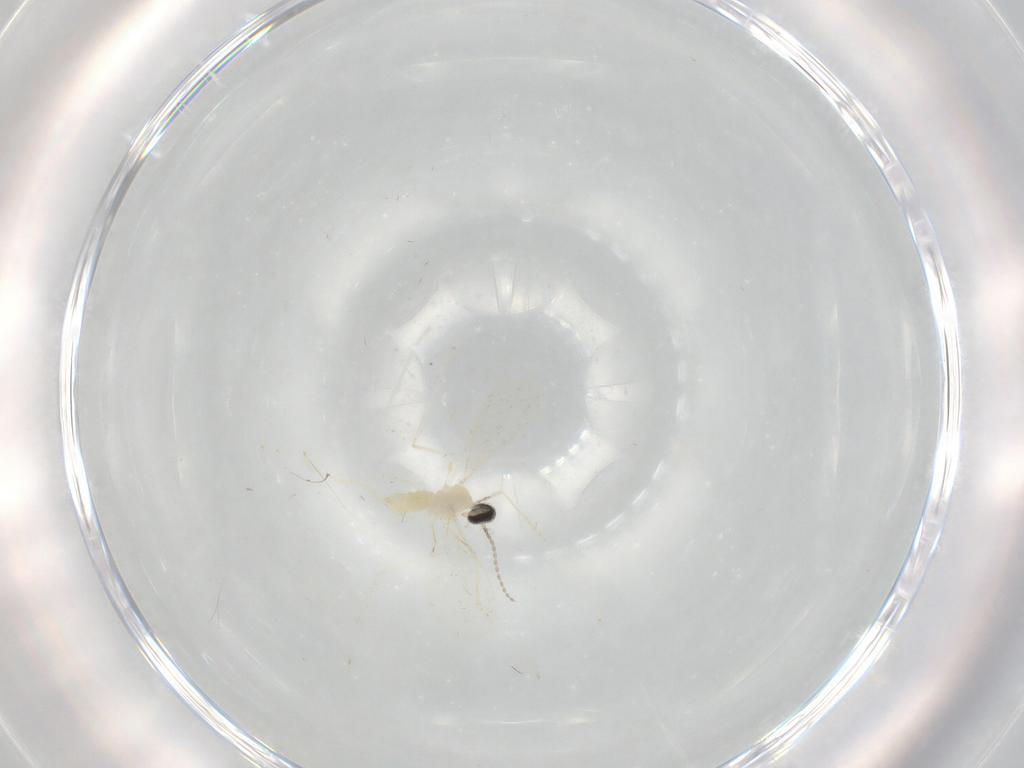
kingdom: Animalia
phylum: Arthropoda
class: Insecta
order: Diptera
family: Cecidomyiidae
